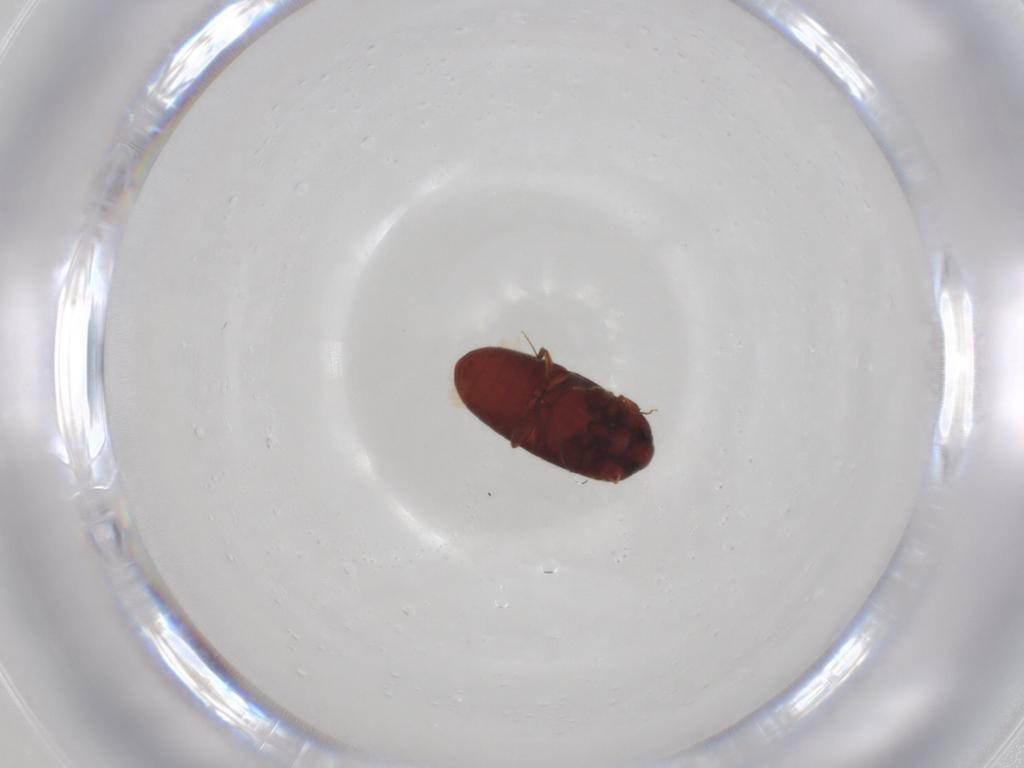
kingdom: Animalia
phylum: Arthropoda
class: Insecta
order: Coleoptera
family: Throscidae
